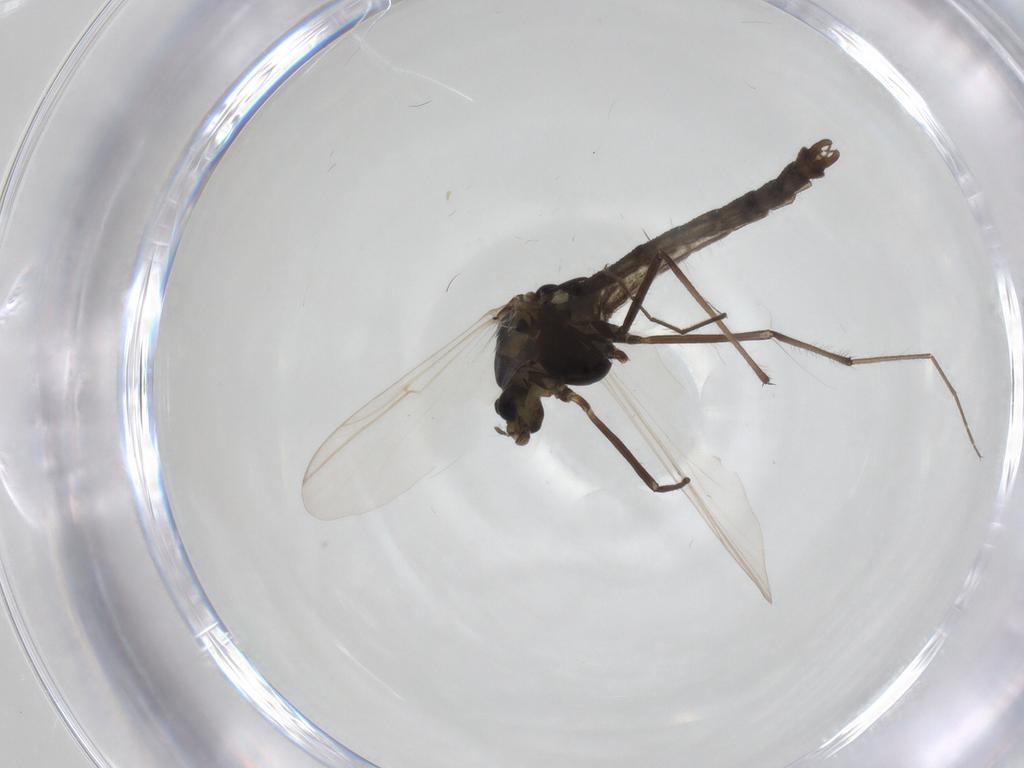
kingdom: Animalia
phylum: Arthropoda
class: Insecta
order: Diptera
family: Chironomidae
